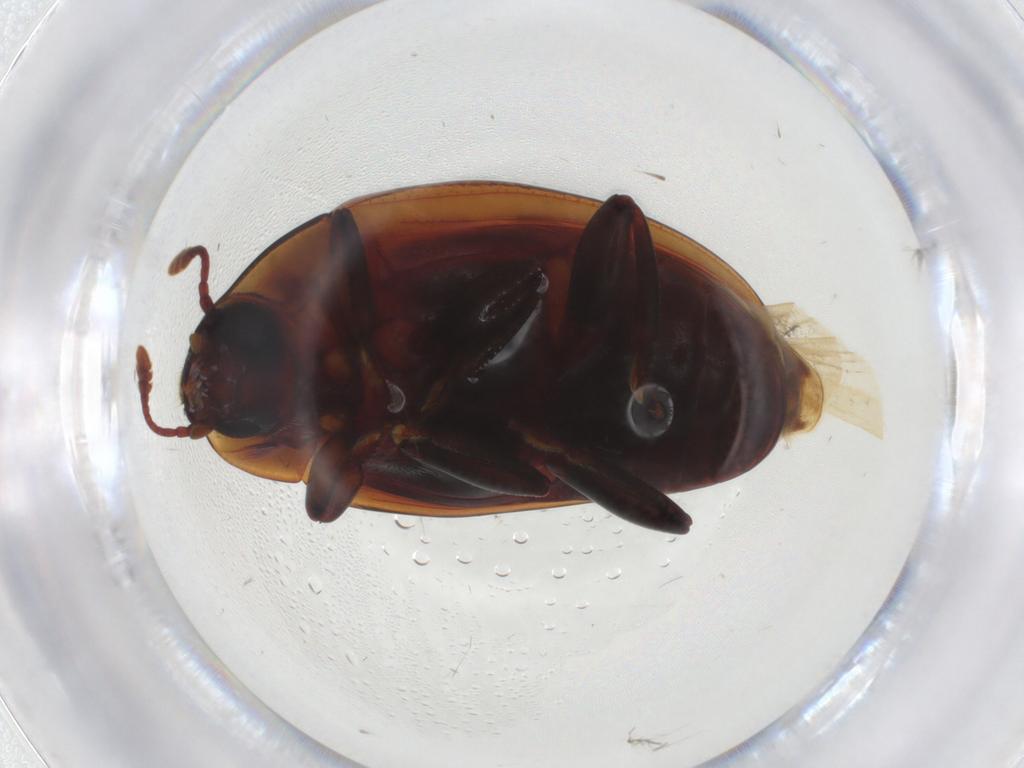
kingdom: Animalia
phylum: Arthropoda
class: Insecta
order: Coleoptera
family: Zopheridae
